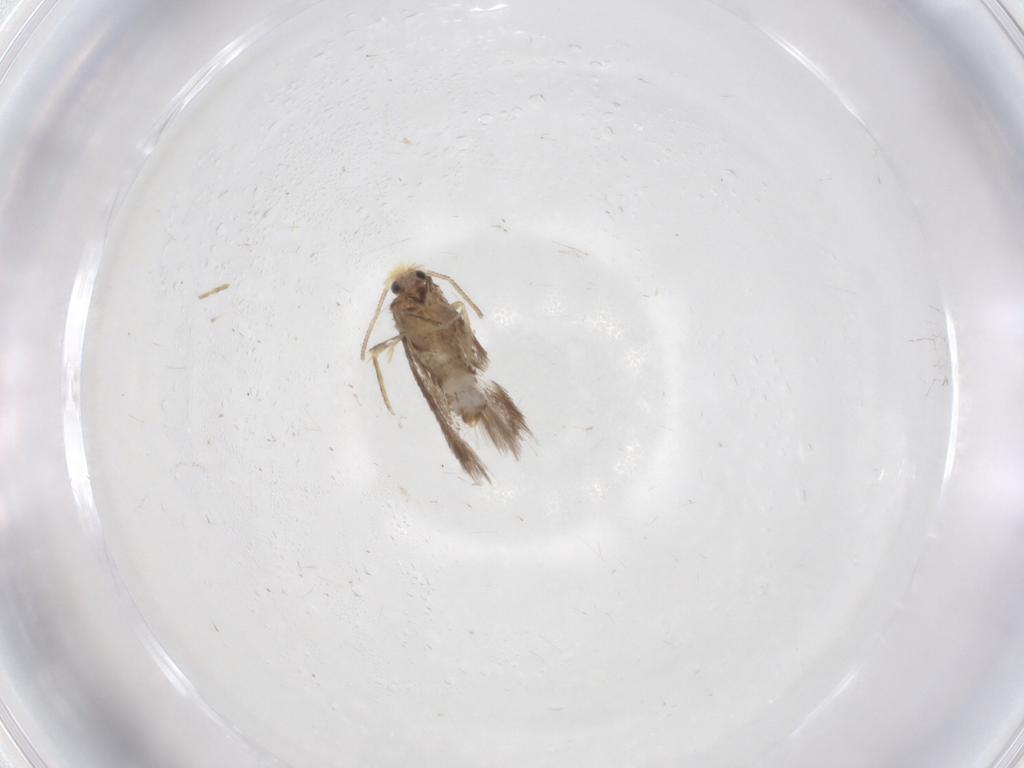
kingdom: Animalia
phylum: Arthropoda
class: Insecta
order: Lepidoptera
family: Nepticulidae
